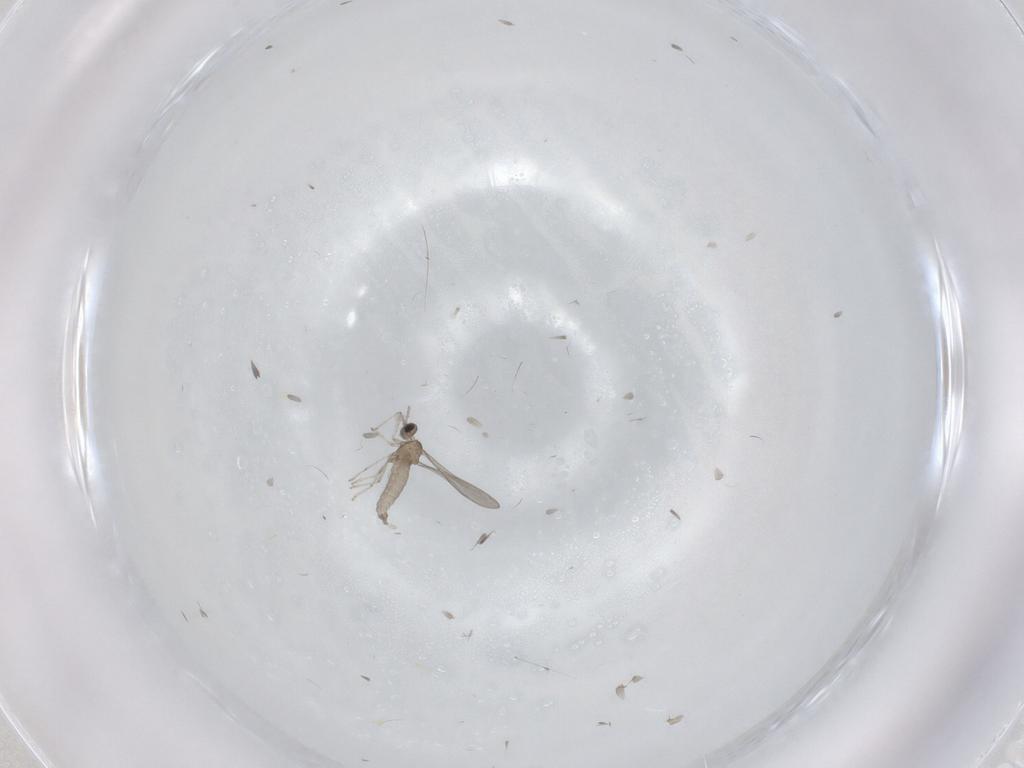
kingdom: Animalia
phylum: Arthropoda
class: Insecta
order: Diptera
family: Cecidomyiidae
